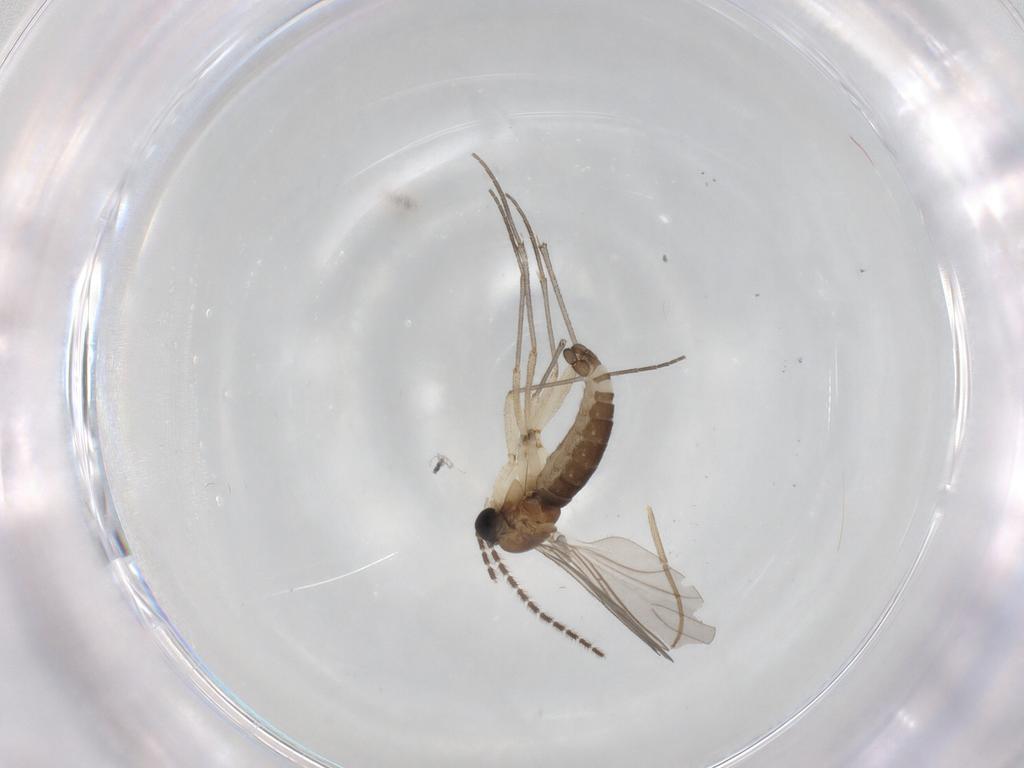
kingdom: Animalia
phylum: Arthropoda
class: Insecta
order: Diptera
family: Sciaridae
